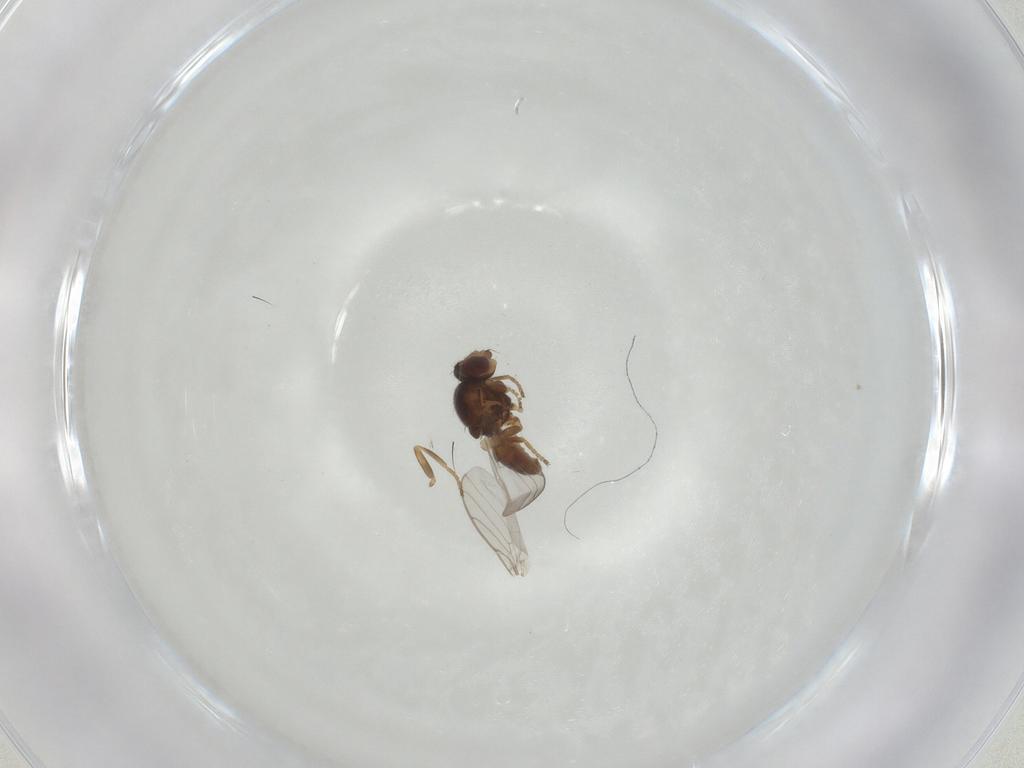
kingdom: Animalia
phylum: Arthropoda
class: Insecta
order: Diptera
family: Chloropidae
